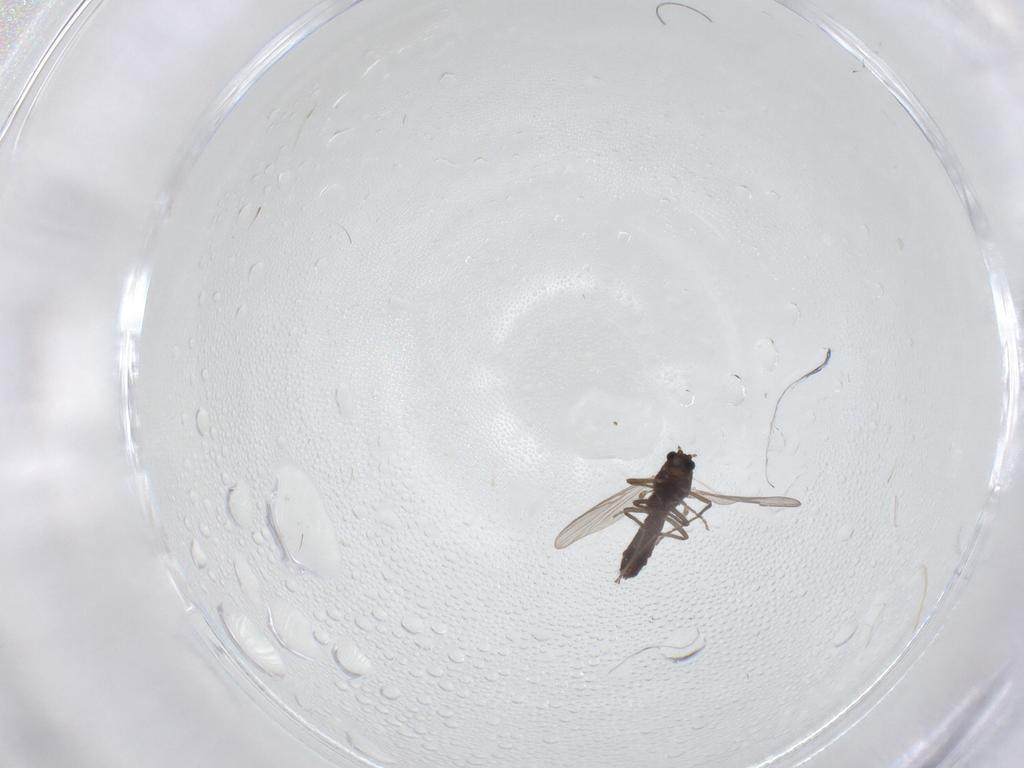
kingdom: Animalia
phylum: Arthropoda
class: Insecta
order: Diptera
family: Chironomidae
